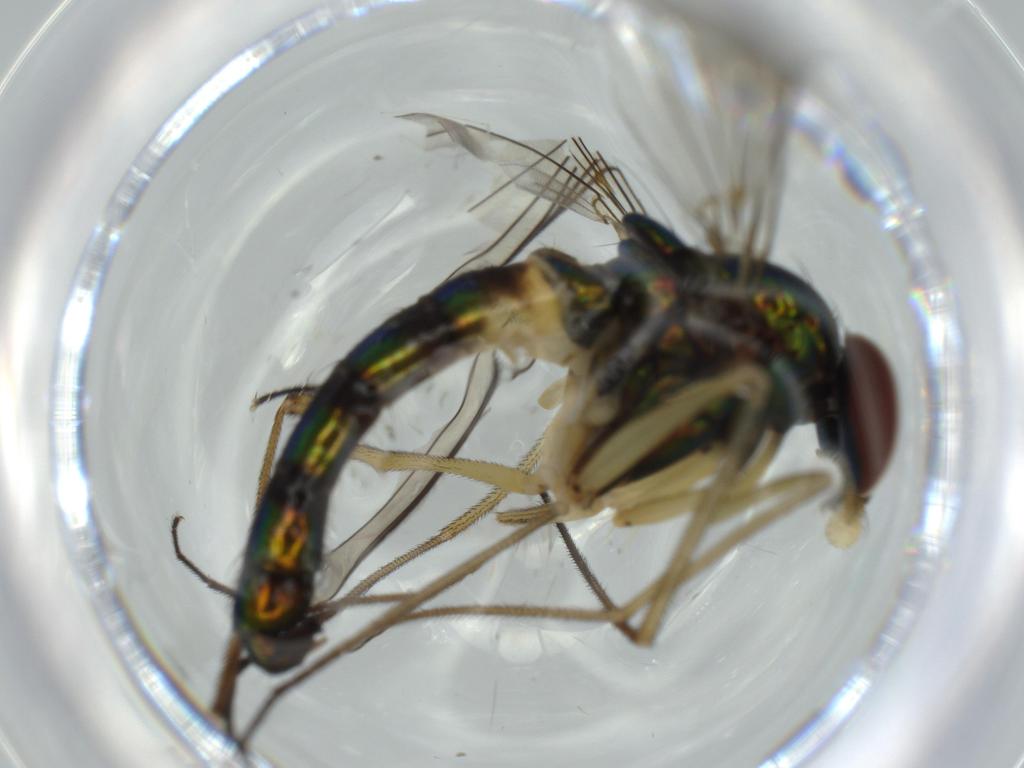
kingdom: Animalia
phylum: Arthropoda
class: Insecta
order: Diptera
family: Dolichopodidae
